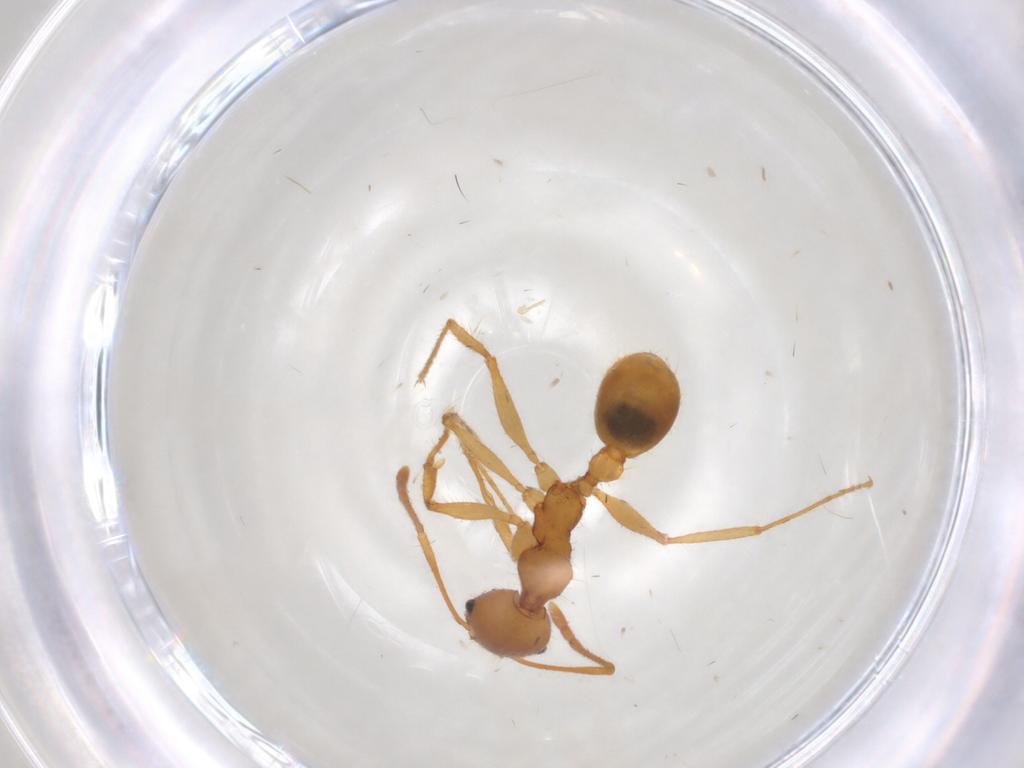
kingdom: Animalia
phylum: Arthropoda
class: Insecta
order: Hymenoptera
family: Formicidae
